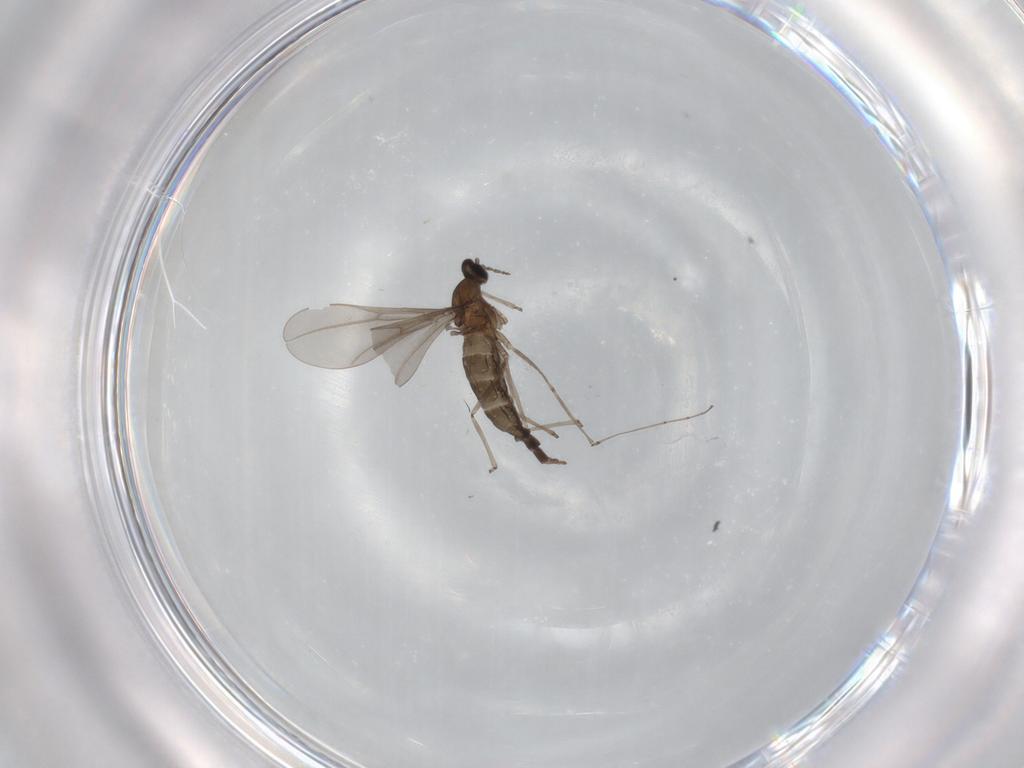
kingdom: Animalia
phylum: Arthropoda
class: Insecta
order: Diptera
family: Cecidomyiidae
